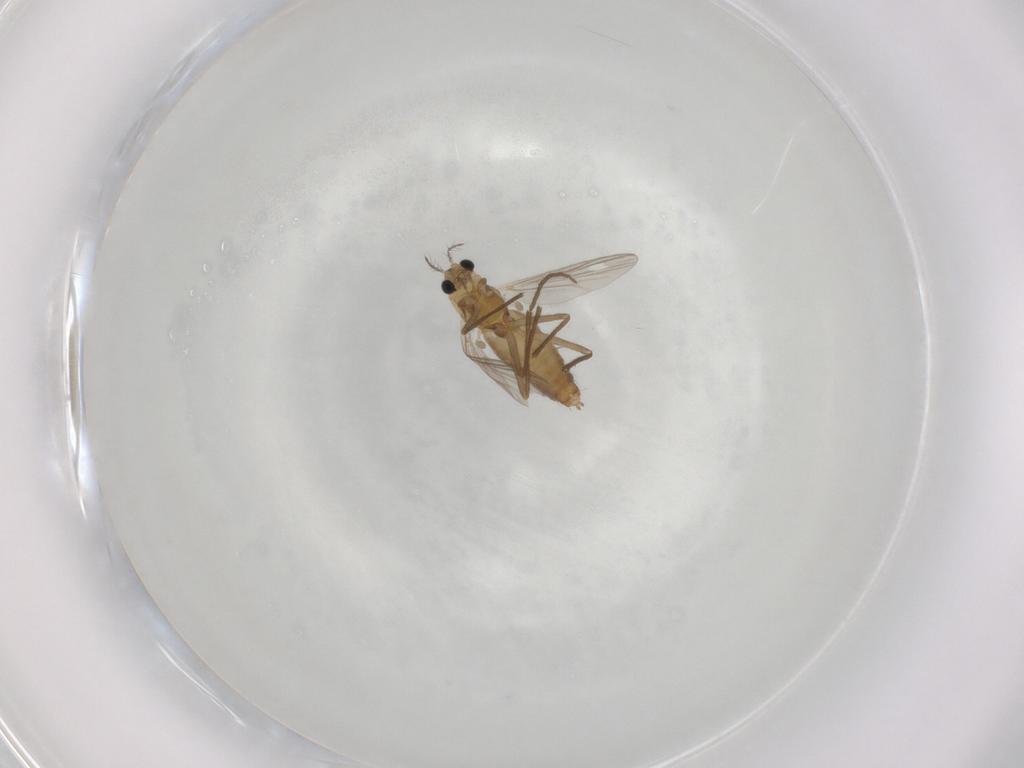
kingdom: Animalia
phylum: Arthropoda
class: Insecta
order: Diptera
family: Chironomidae
